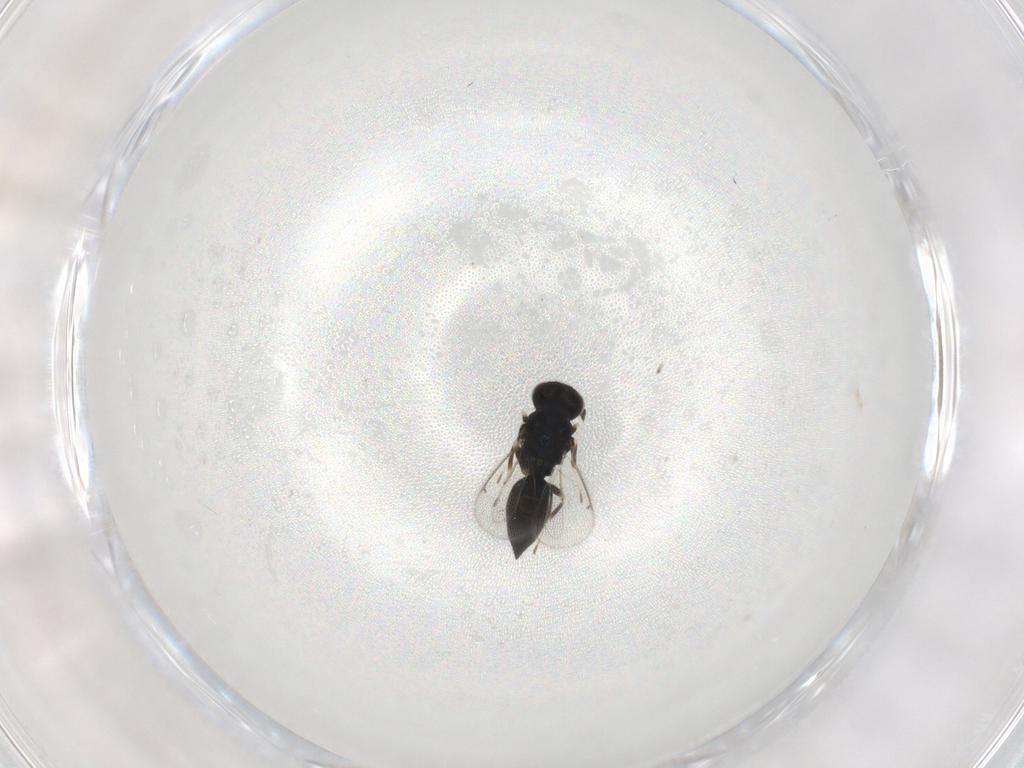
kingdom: Animalia
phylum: Arthropoda
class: Insecta
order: Hymenoptera
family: Eulophidae
